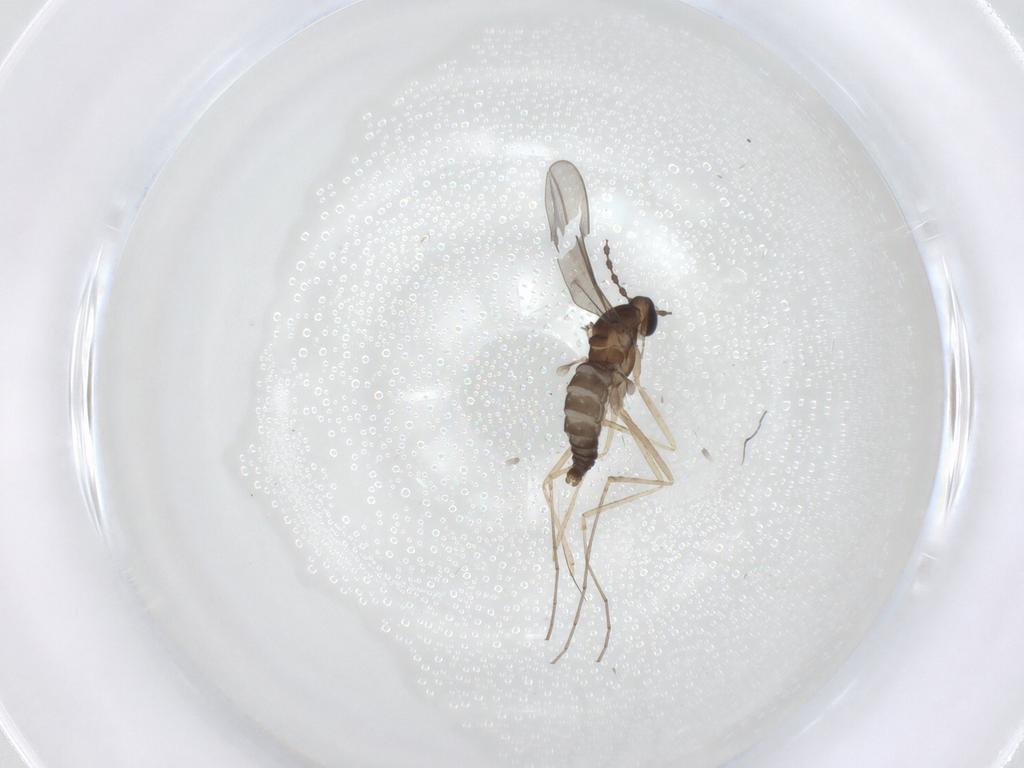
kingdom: Animalia
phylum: Arthropoda
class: Insecta
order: Diptera
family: Cecidomyiidae
